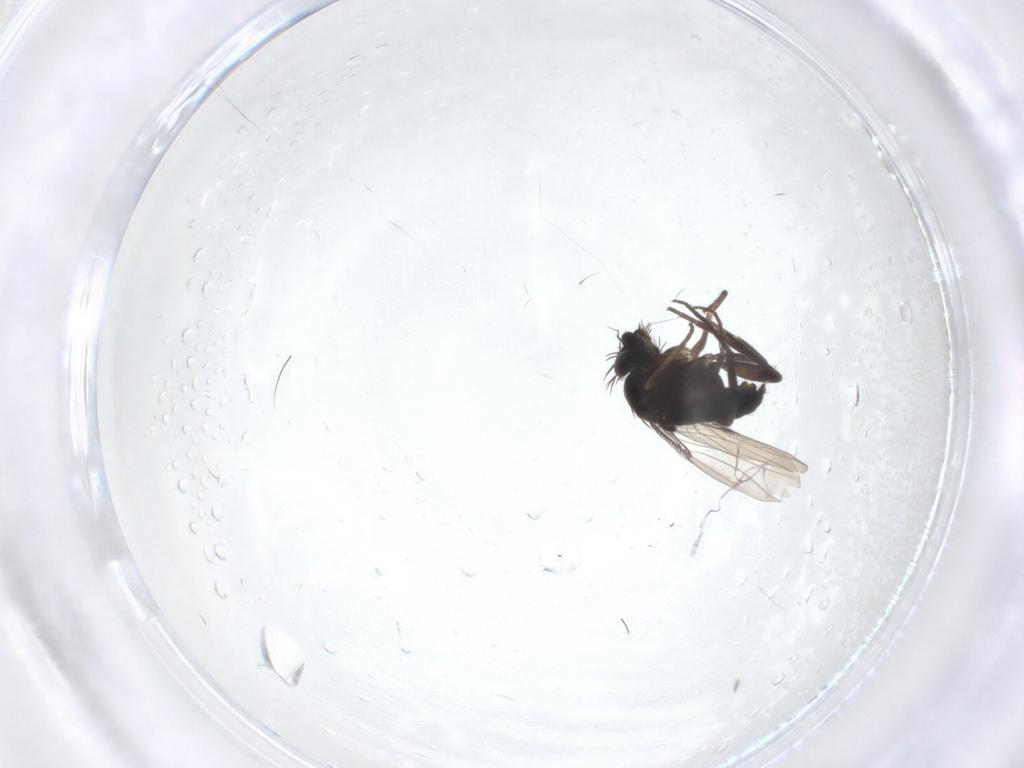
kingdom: Animalia
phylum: Arthropoda
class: Insecta
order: Diptera
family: Phoridae
